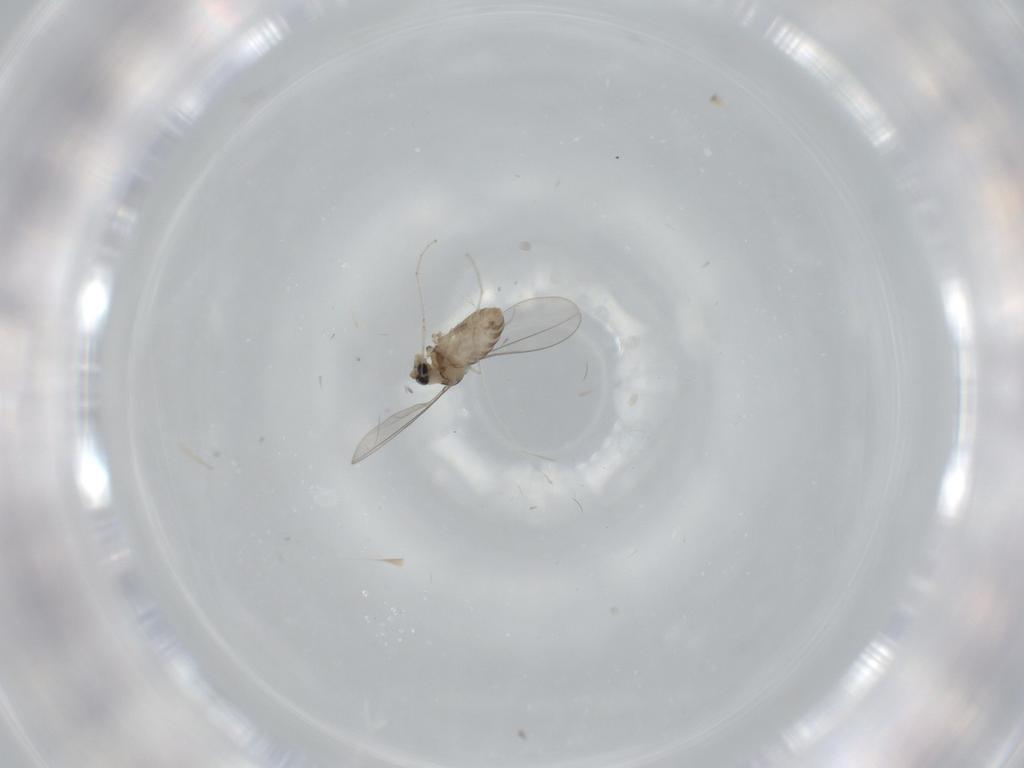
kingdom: Animalia
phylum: Arthropoda
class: Insecta
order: Diptera
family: Cecidomyiidae
